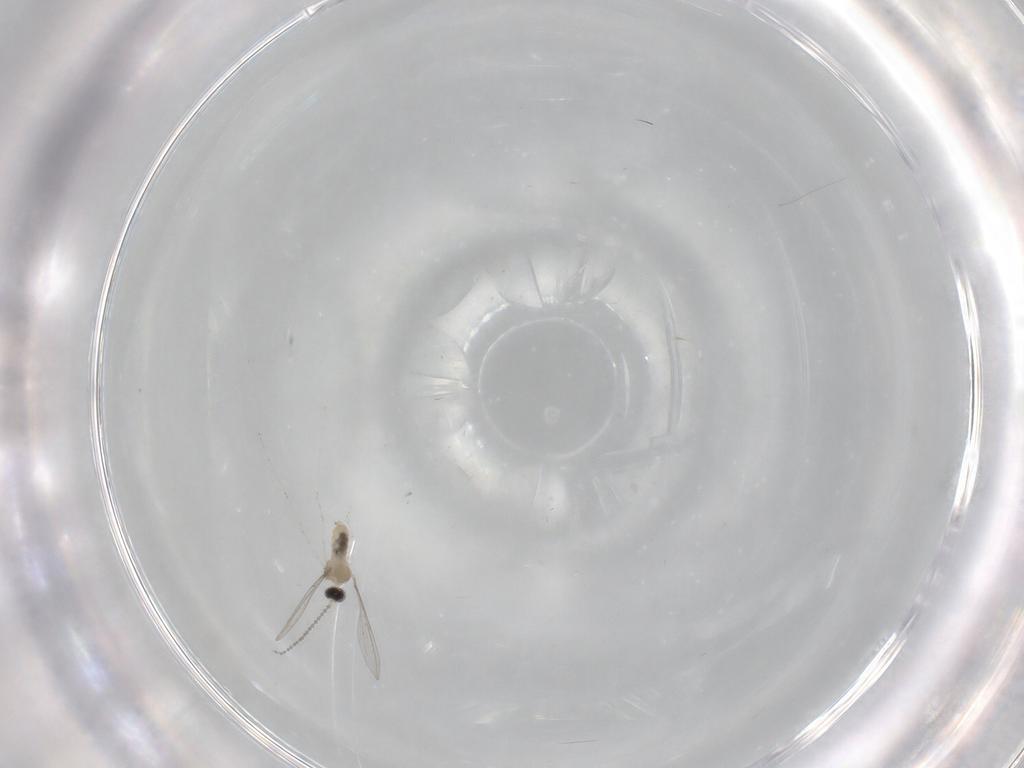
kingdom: Animalia
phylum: Arthropoda
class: Insecta
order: Diptera
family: Cecidomyiidae
